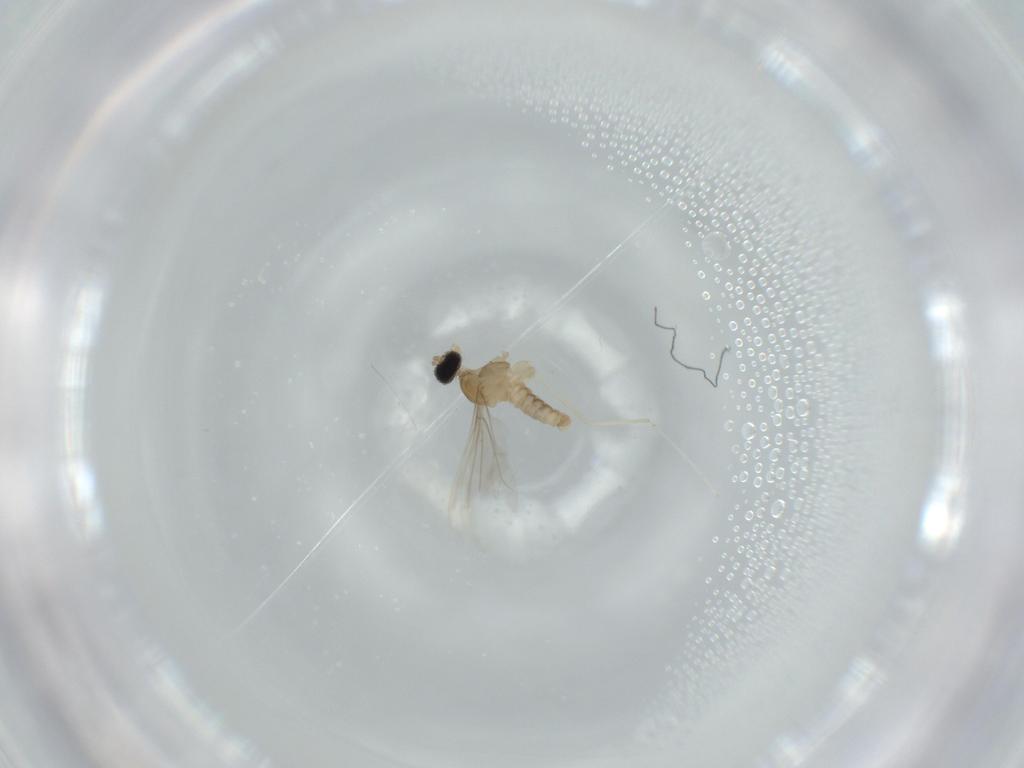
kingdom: Animalia
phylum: Arthropoda
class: Insecta
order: Diptera
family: Cecidomyiidae
